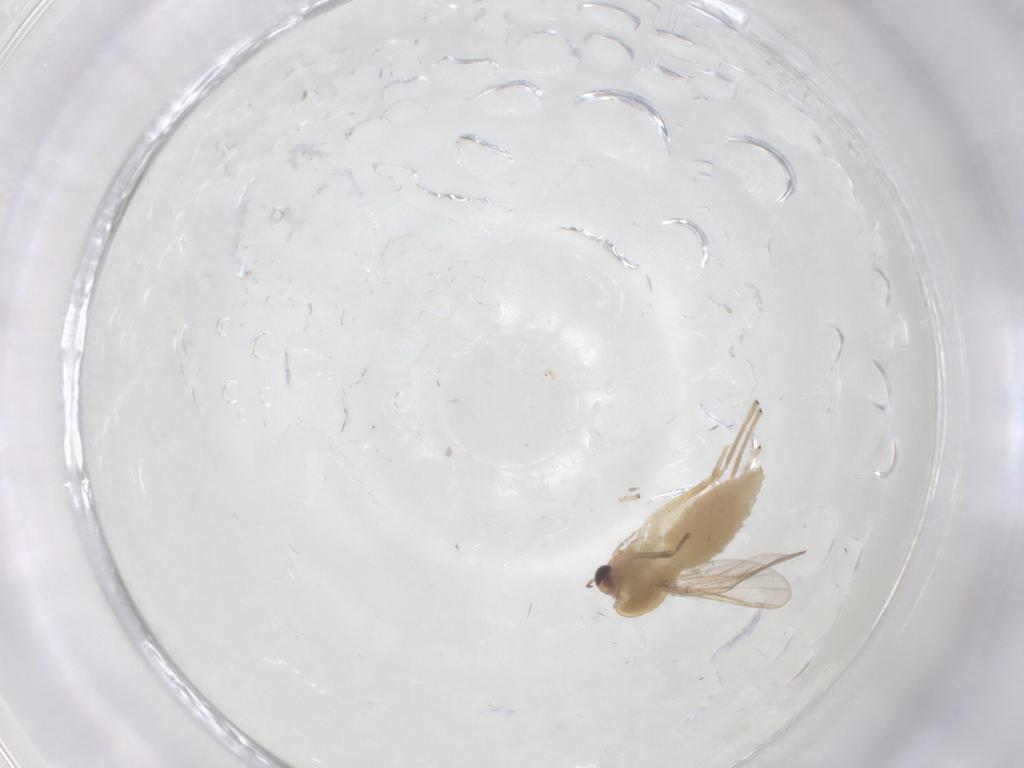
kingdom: Animalia
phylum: Arthropoda
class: Insecta
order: Diptera
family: Chironomidae
